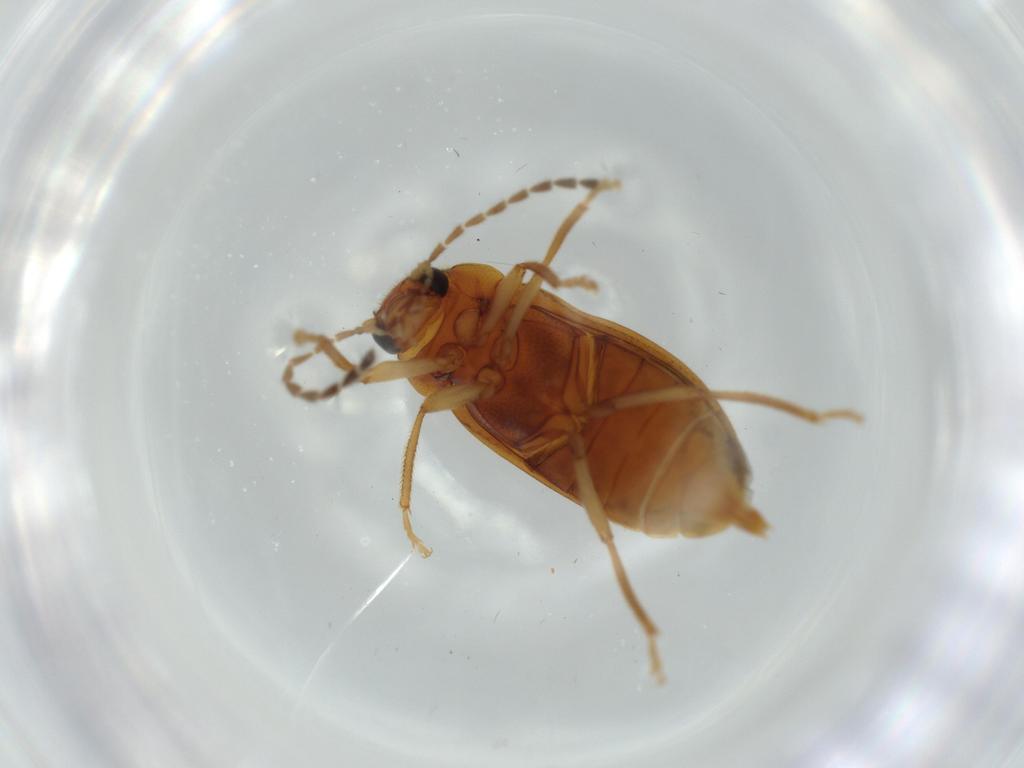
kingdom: Animalia
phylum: Arthropoda
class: Insecta
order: Coleoptera
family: Ptilodactylidae
